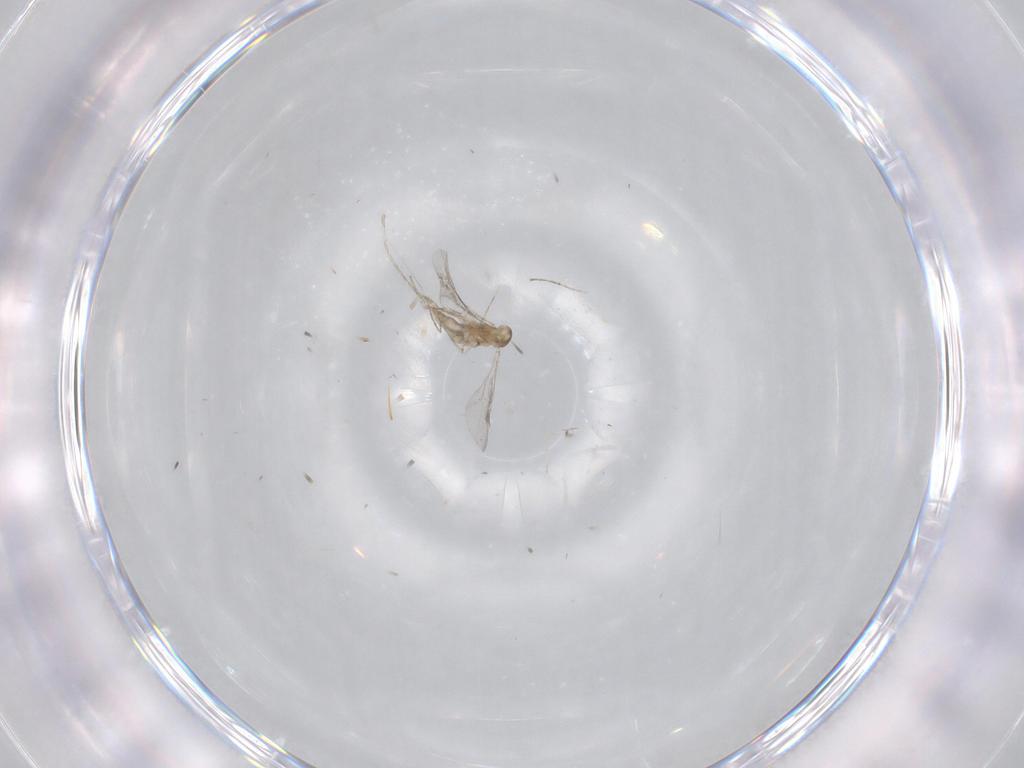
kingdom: Animalia
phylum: Arthropoda
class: Insecta
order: Diptera
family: Cecidomyiidae
